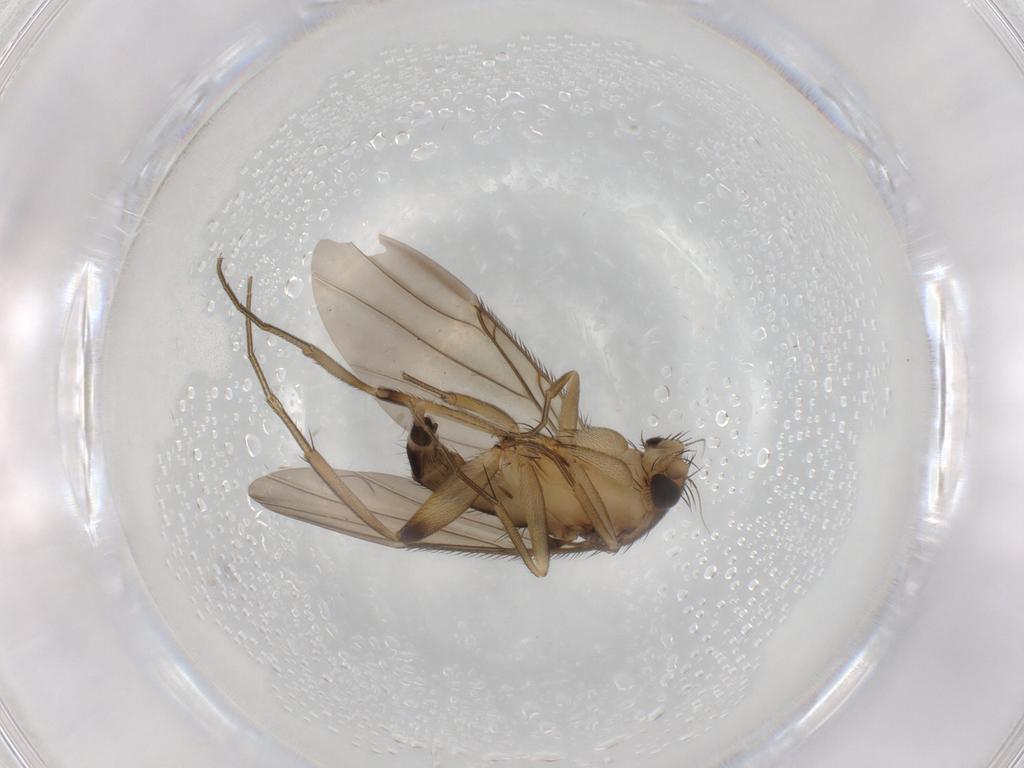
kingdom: Animalia
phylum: Arthropoda
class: Insecta
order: Diptera
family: Phoridae
